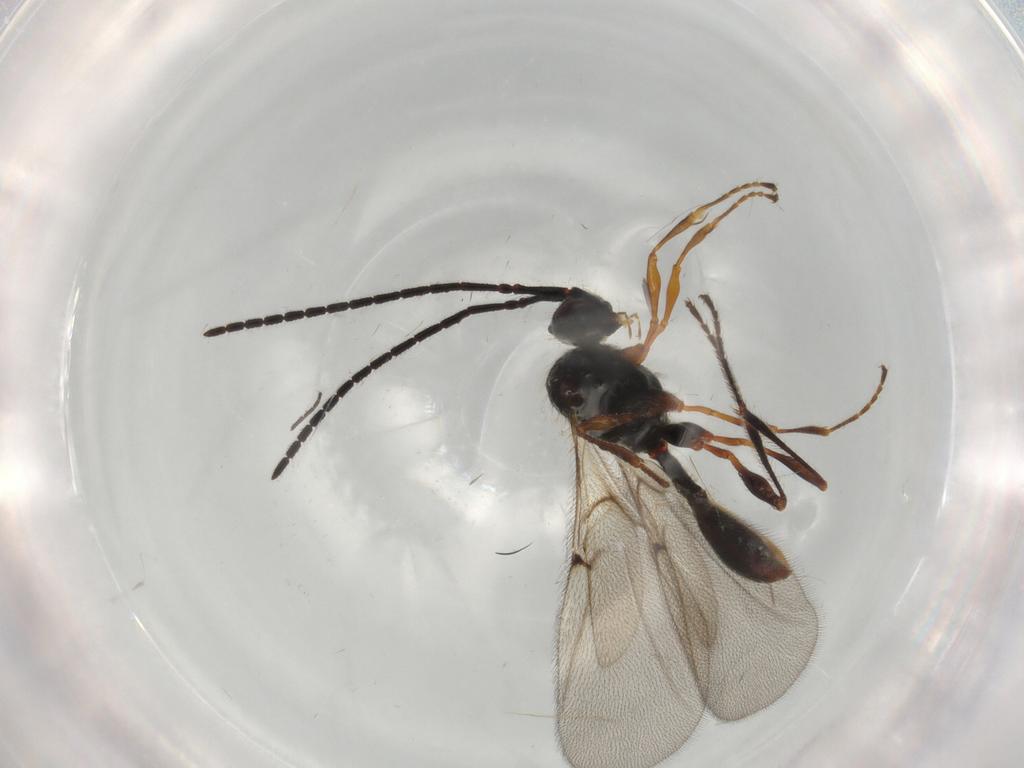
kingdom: Animalia
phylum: Arthropoda
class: Insecta
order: Hymenoptera
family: Diapriidae
